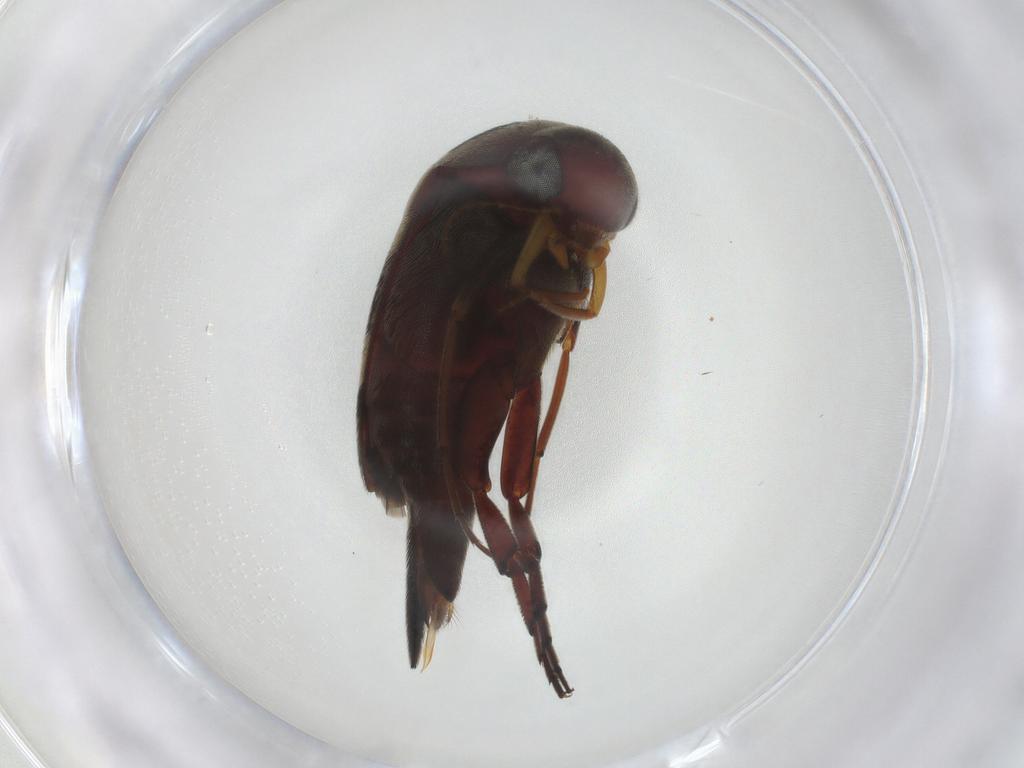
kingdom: Animalia
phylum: Arthropoda
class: Insecta
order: Coleoptera
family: Mordellidae
